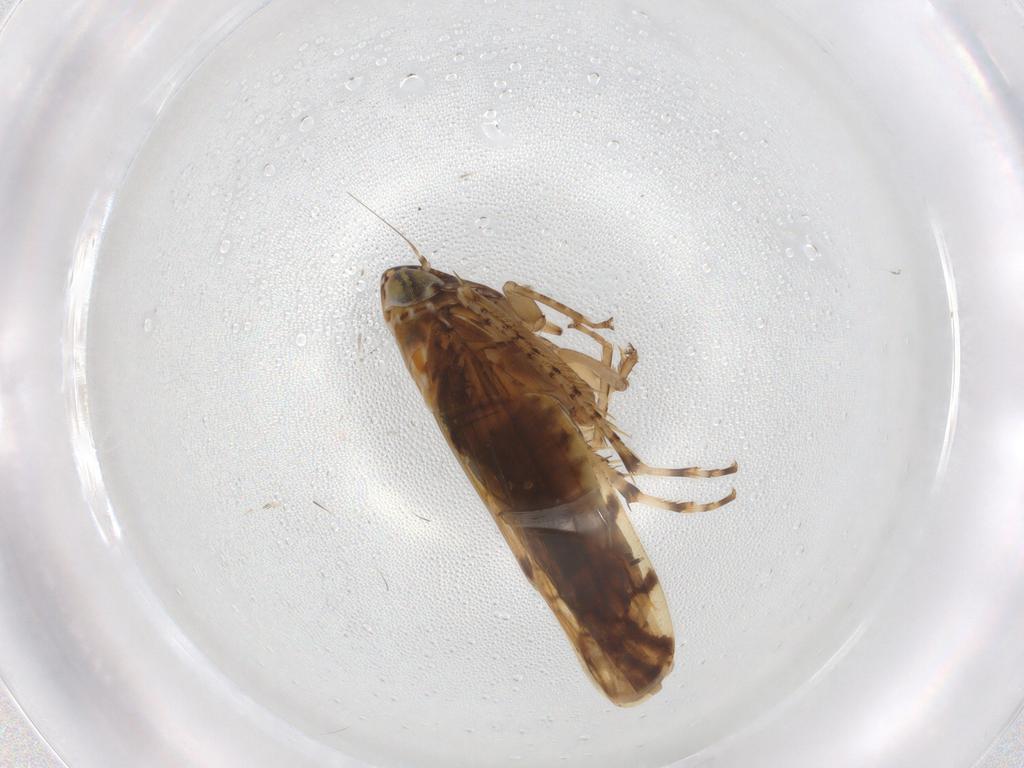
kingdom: Animalia
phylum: Arthropoda
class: Insecta
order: Hemiptera
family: Cicadellidae
